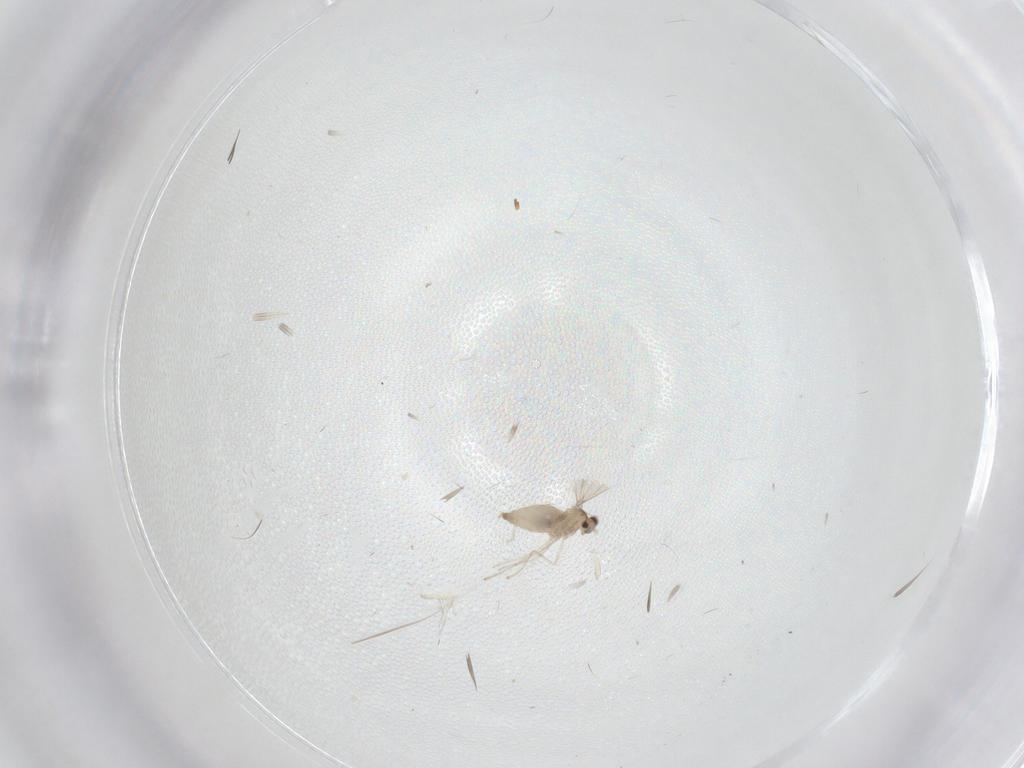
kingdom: Animalia
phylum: Arthropoda
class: Insecta
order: Diptera
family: Cecidomyiidae
